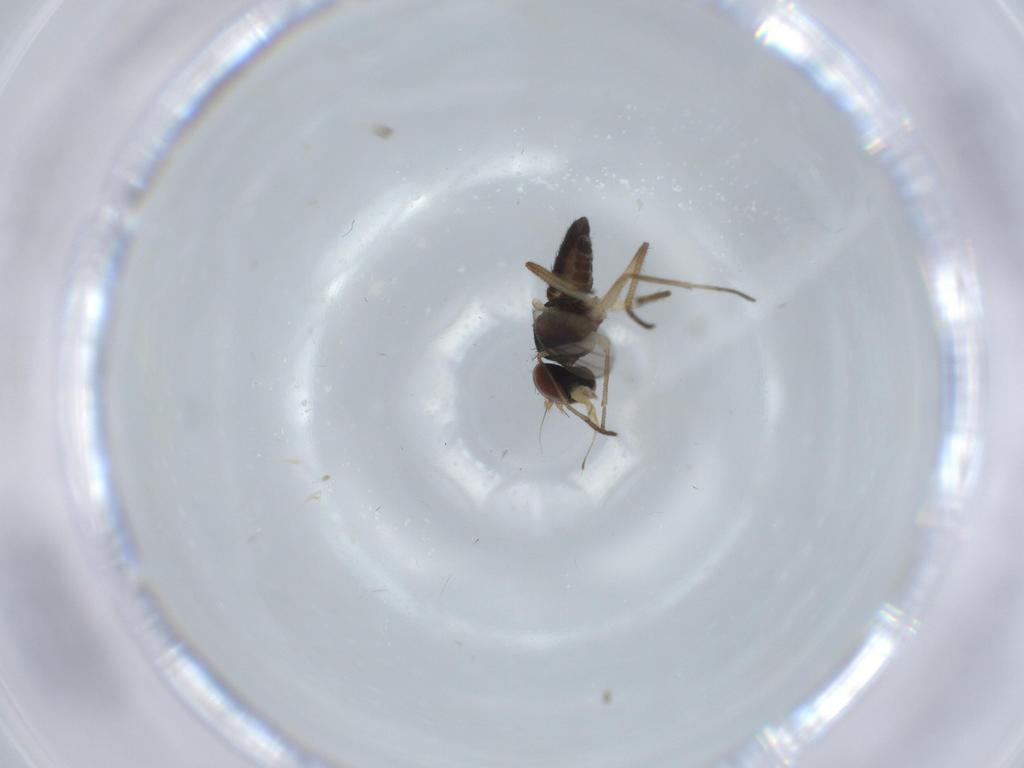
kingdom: Animalia
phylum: Arthropoda
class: Insecta
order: Diptera
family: Dolichopodidae
